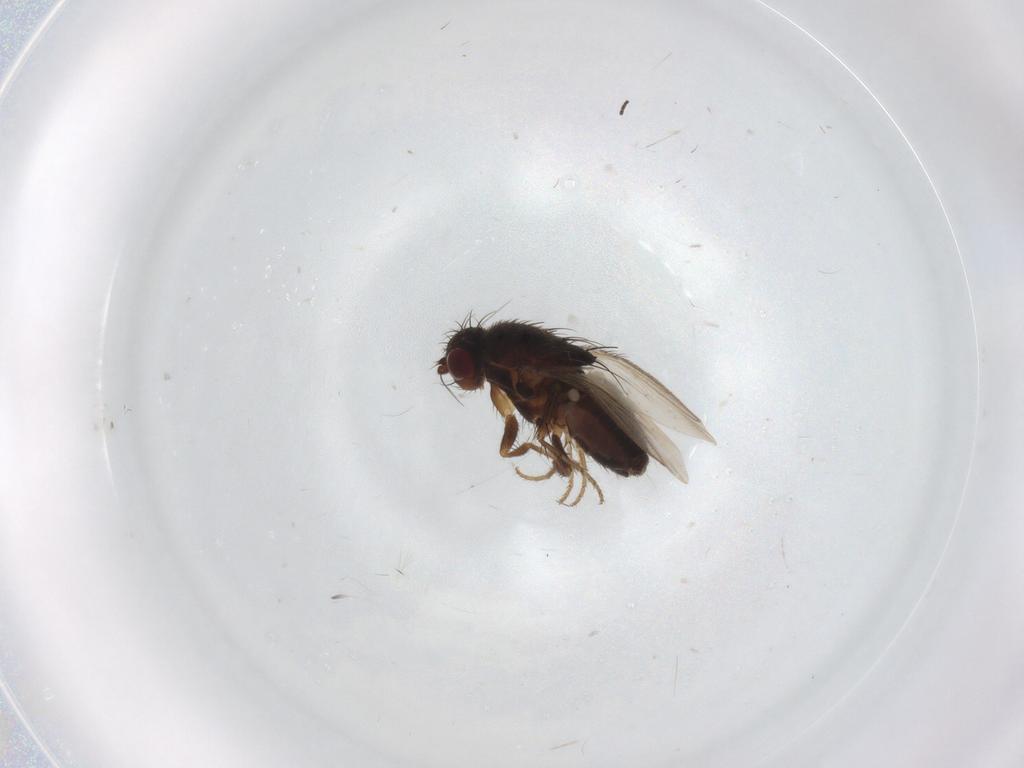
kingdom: Animalia
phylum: Arthropoda
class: Insecta
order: Diptera
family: Sphaeroceridae
